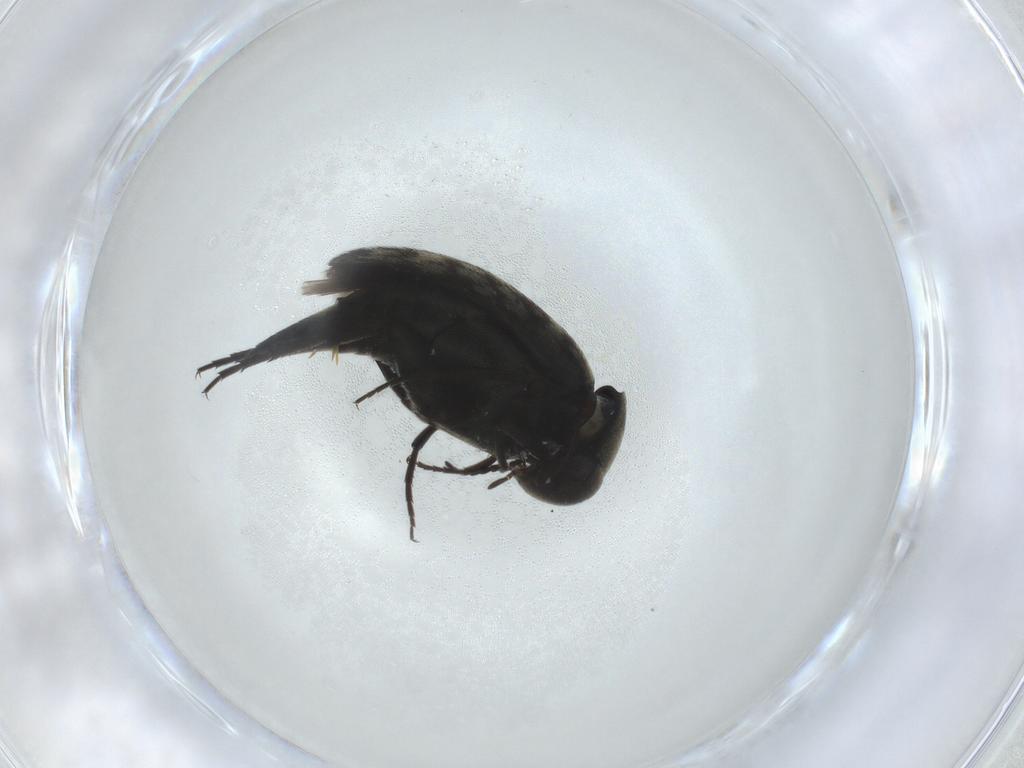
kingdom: Animalia
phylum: Arthropoda
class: Insecta
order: Coleoptera
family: Mordellidae
